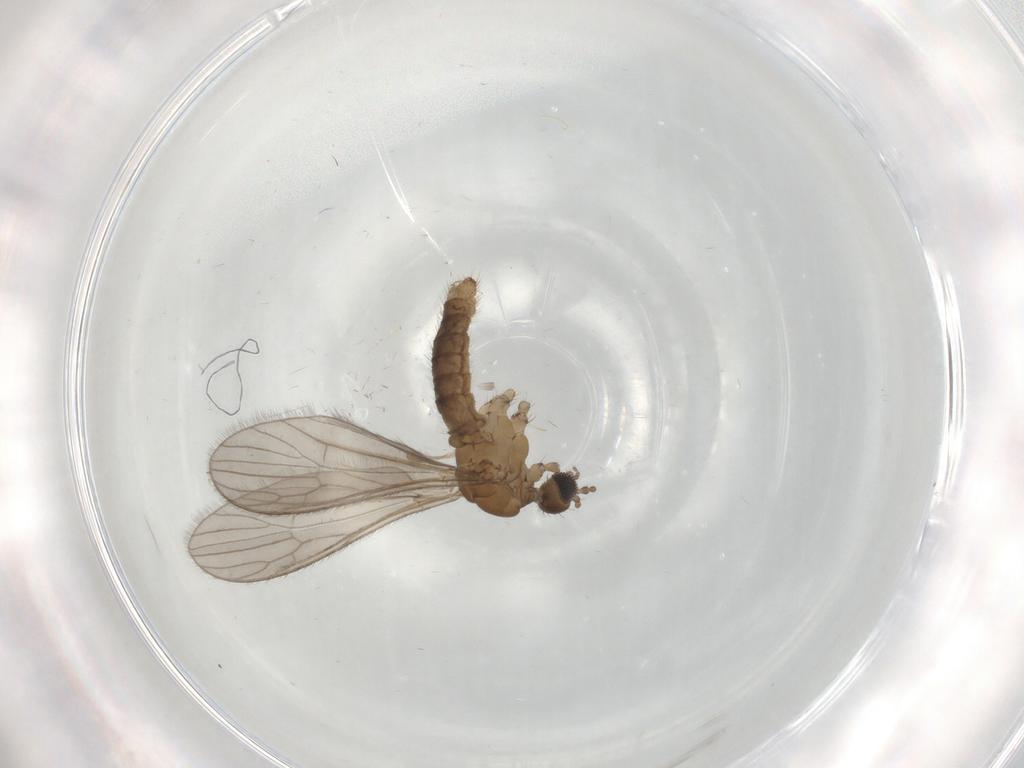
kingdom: Animalia
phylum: Arthropoda
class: Insecta
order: Diptera
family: Limoniidae
